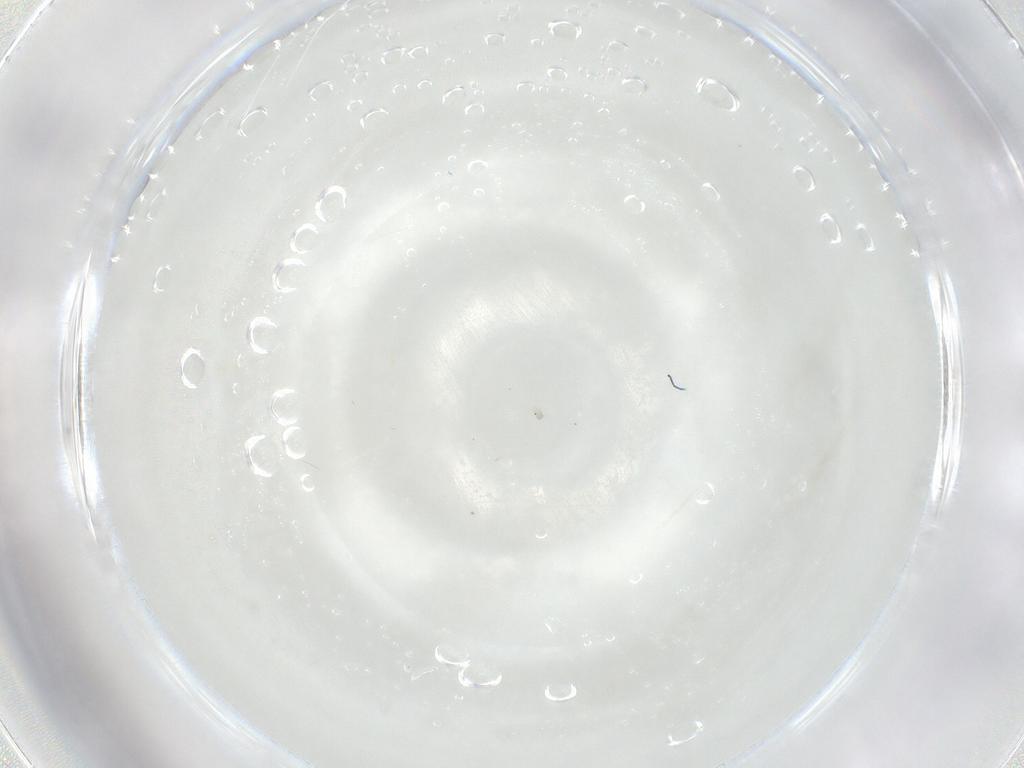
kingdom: Animalia
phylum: Arthropoda
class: Insecta
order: Diptera
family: Cecidomyiidae
